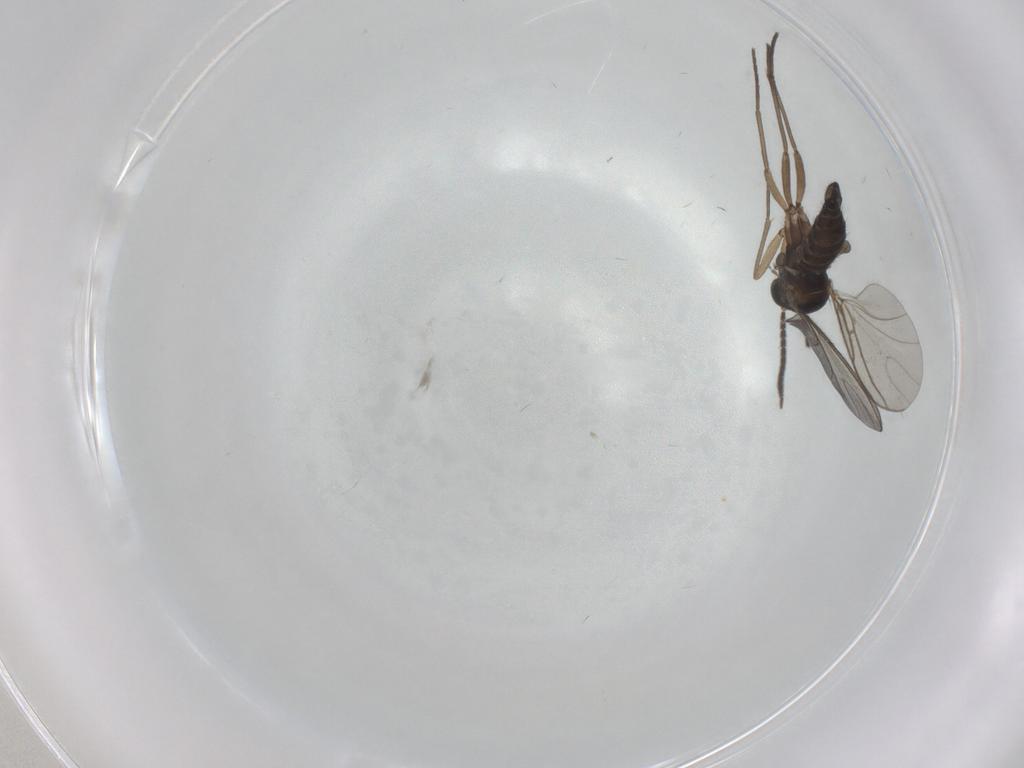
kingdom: Animalia
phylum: Arthropoda
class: Insecta
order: Diptera
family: Sciaridae
